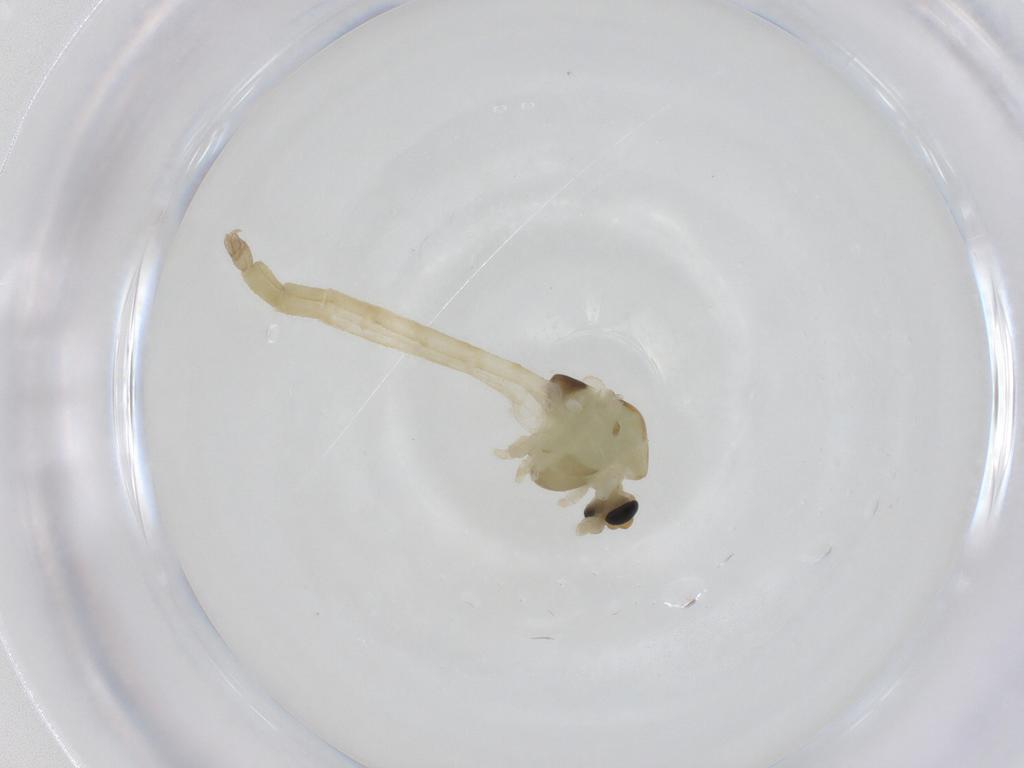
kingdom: Animalia
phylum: Arthropoda
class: Insecta
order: Diptera
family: Chironomidae
